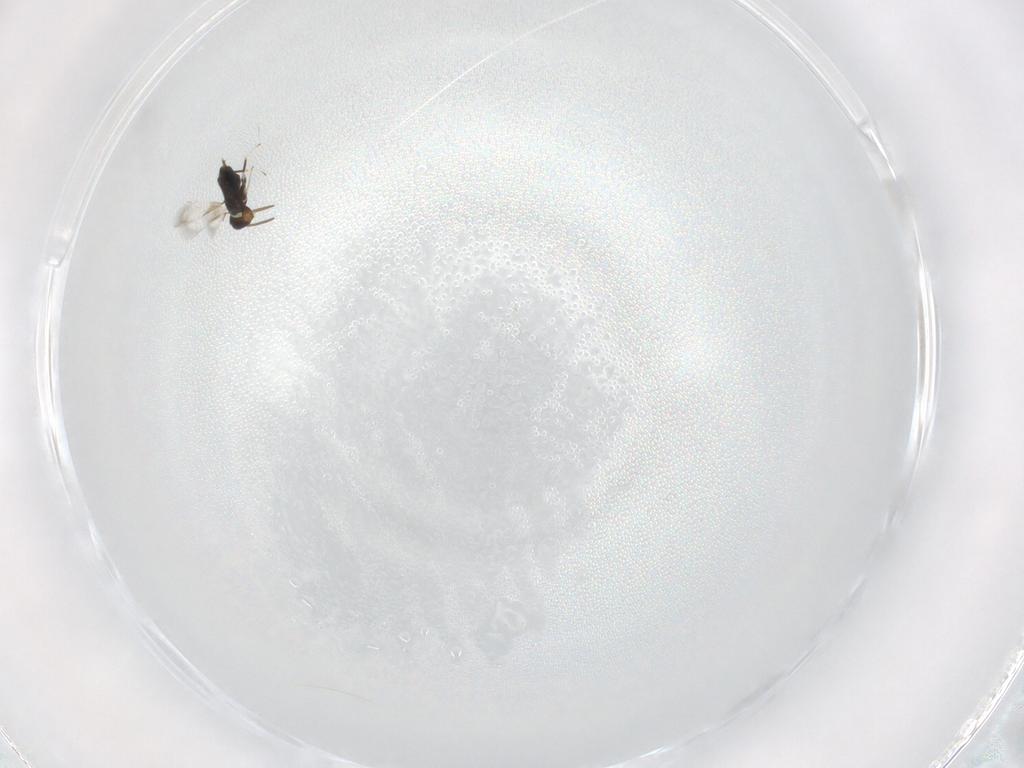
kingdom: Animalia
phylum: Arthropoda
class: Insecta
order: Hymenoptera
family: Signiphoridae
